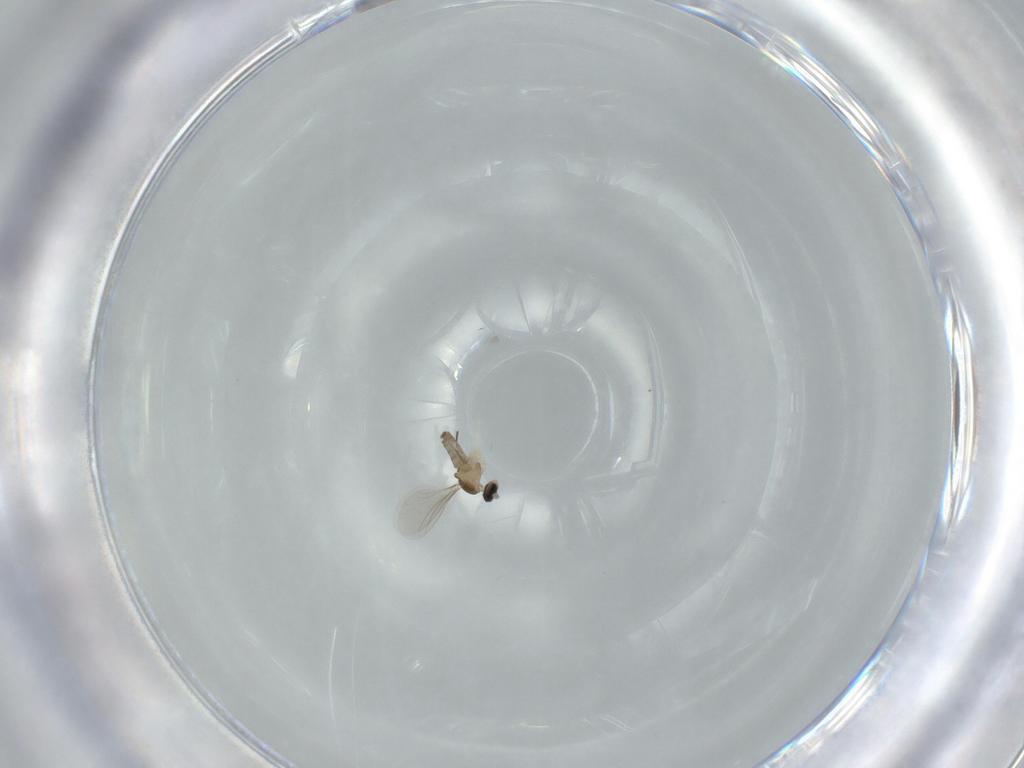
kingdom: Animalia
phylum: Arthropoda
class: Insecta
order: Diptera
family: Cecidomyiidae
